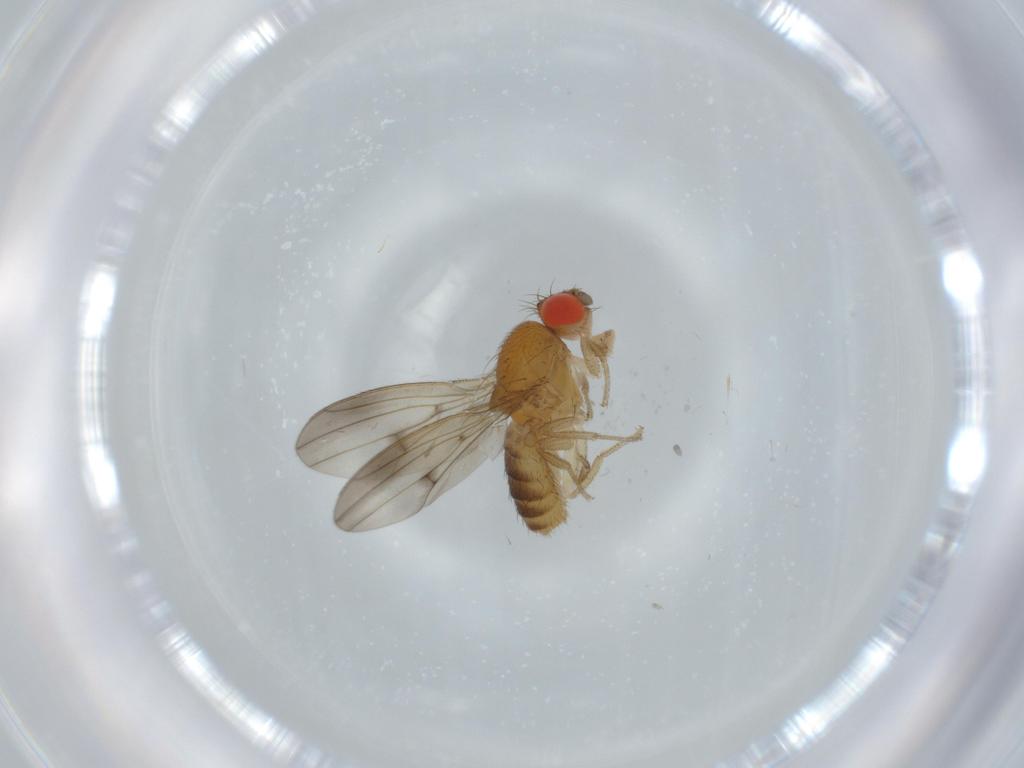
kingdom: Animalia
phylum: Arthropoda
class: Insecta
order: Diptera
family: Drosophilidae
